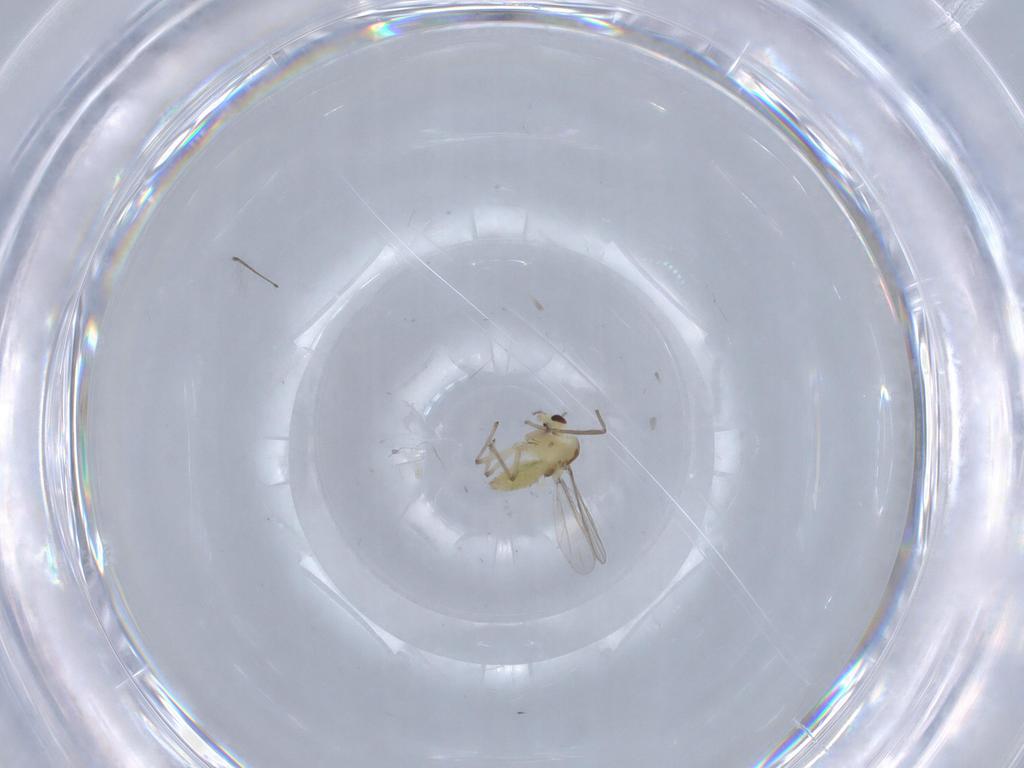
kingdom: Animalia
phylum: Arthropoda
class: Insecta
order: Diptera
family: Chironomidae
